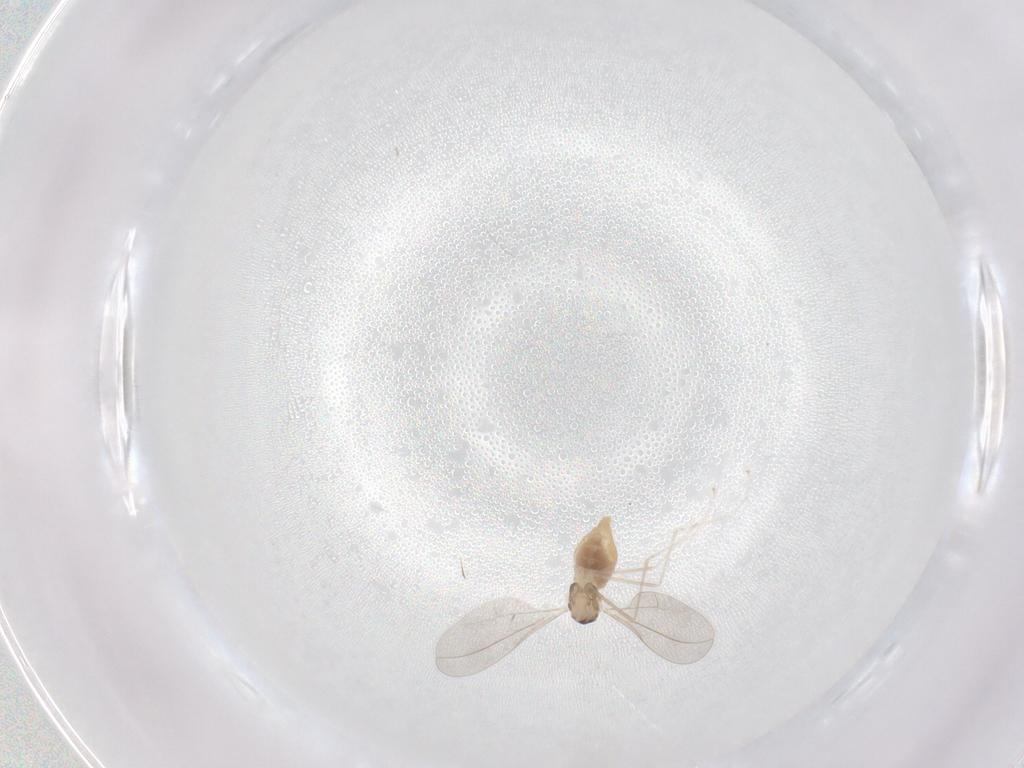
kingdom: Animalia
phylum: Arthropoda
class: Insecta
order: Diptera
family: Cecidomyiidae
